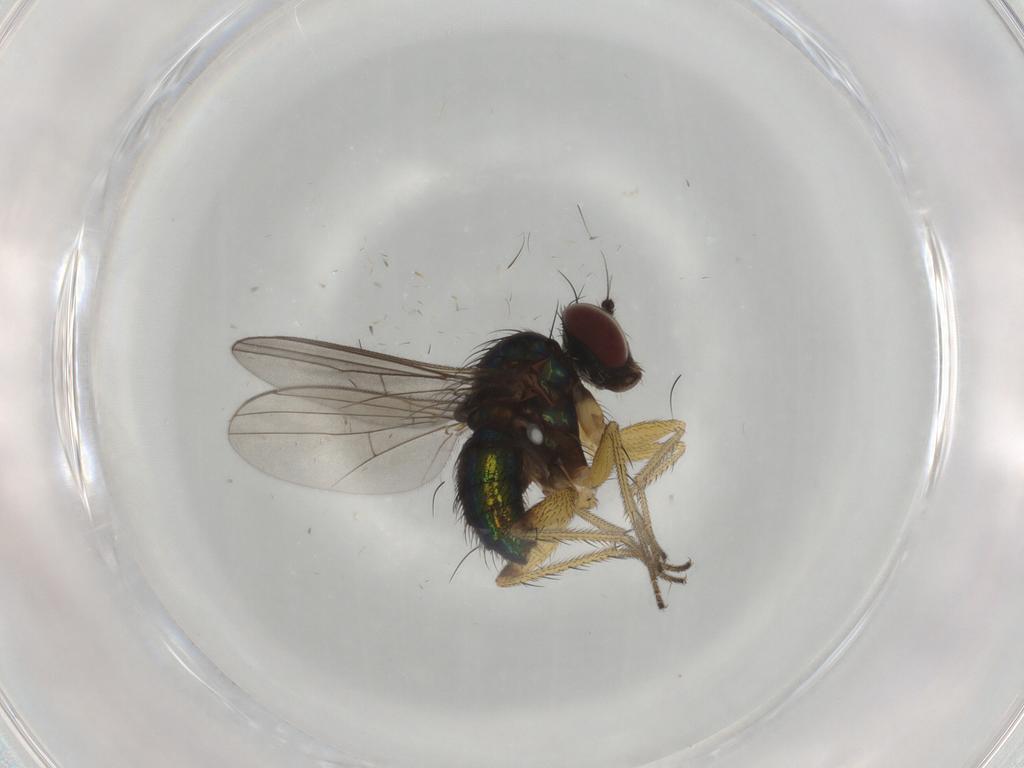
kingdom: Animalia
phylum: Arthropoda
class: Insecta
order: Diptera
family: Dolichopodidae
